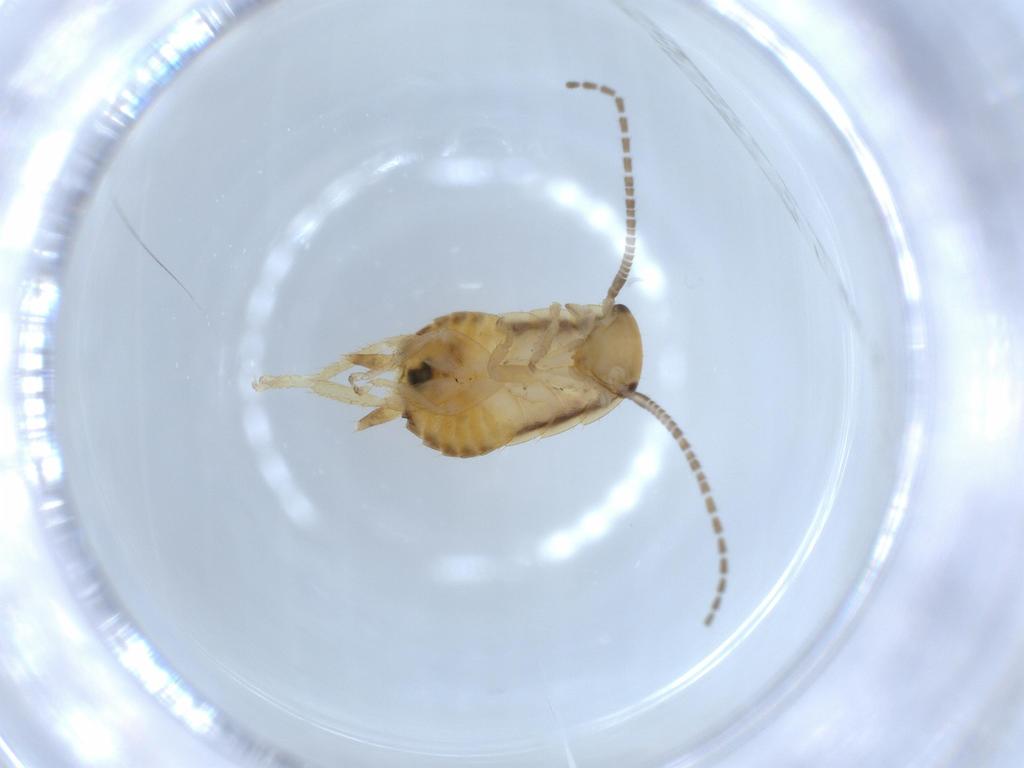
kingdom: Animalia
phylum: Arthropoda
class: Insecta
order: Blattodea
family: Ectobiidae
